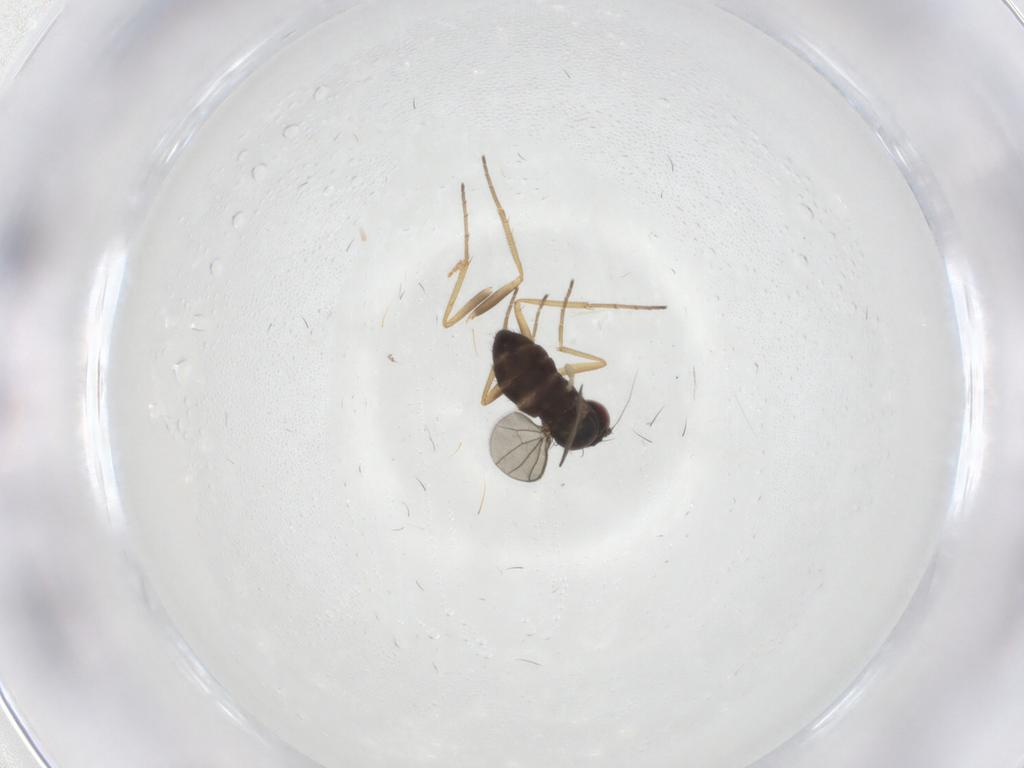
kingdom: Animalia
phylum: Arthropoda
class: Insecta
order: Diptera
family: Dolichopodidae
